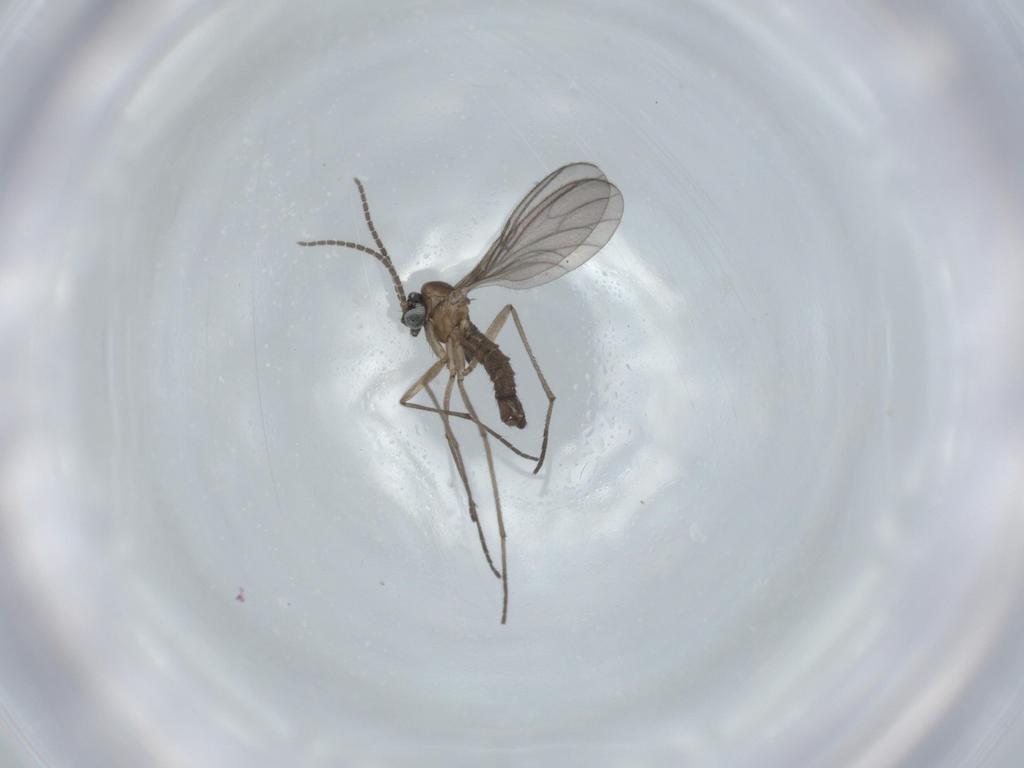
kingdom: Animalia
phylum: Arthropoda
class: Insecta
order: Diptera
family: Sciaridae
